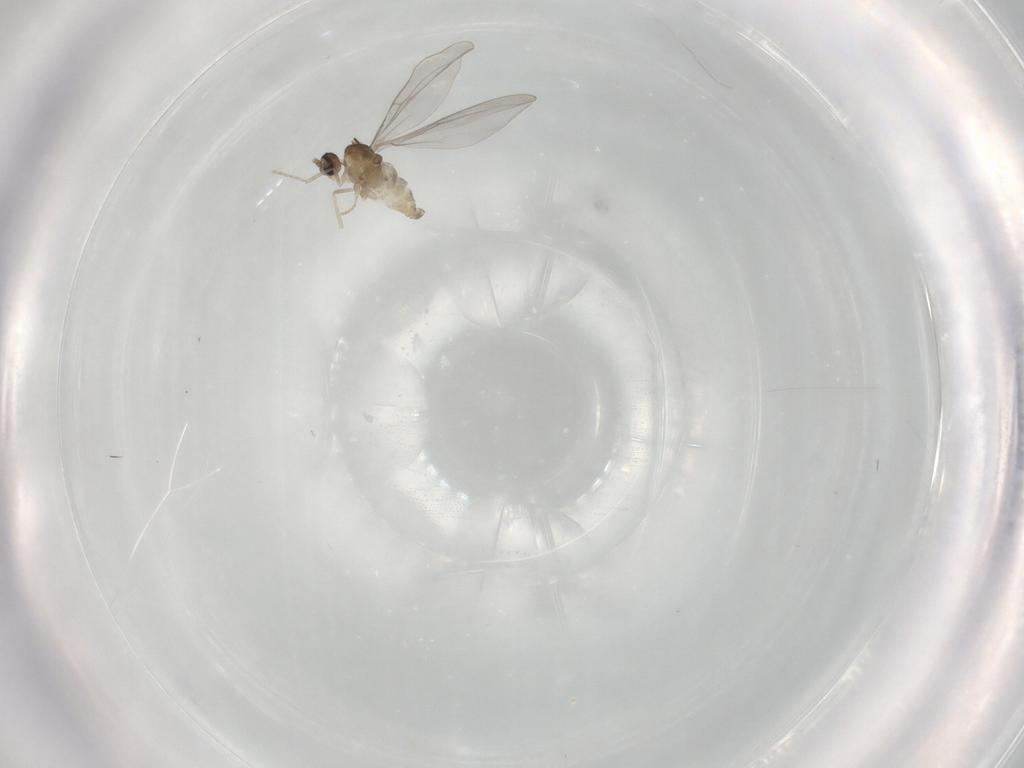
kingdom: Animalia
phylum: Arthropoda
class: Insecta
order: Diptera
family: Cecidomyiidae
